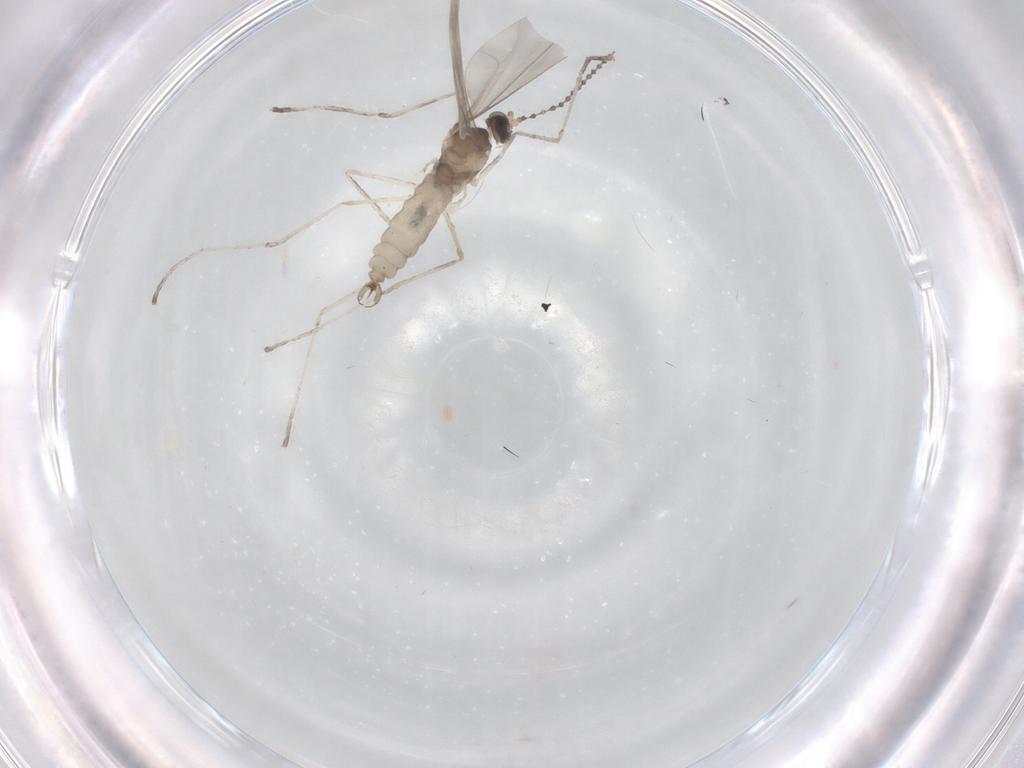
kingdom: Animalia
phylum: Arthropoda
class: Insecta
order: Diptera
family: Cecidomyiidae
